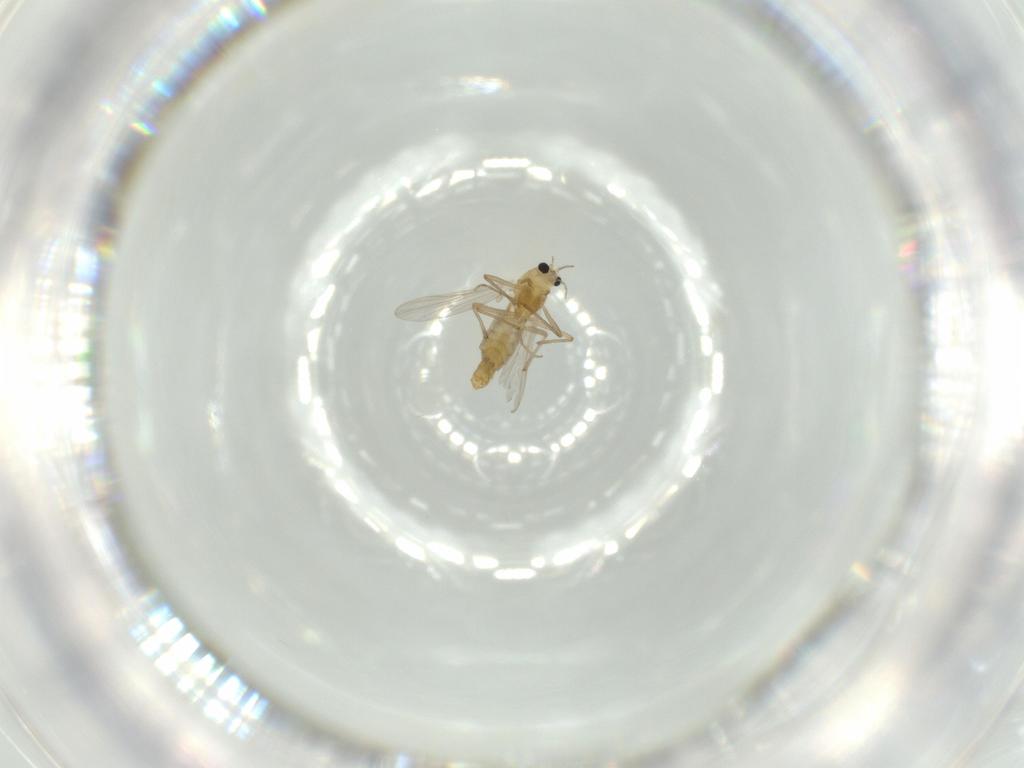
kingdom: Animalia
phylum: Arthropoda
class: Insecta
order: Diptera
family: Chironomidae
